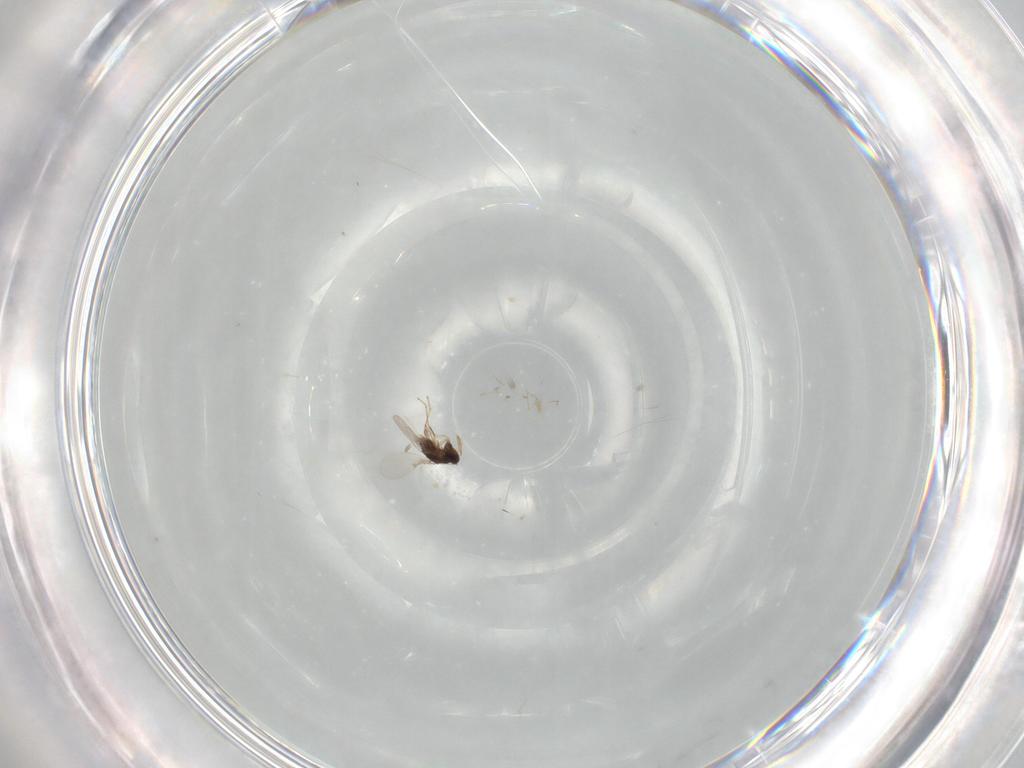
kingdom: Animalia
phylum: Arthropoda
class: Insecta
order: Hymenoptera
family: Encyrtidae
